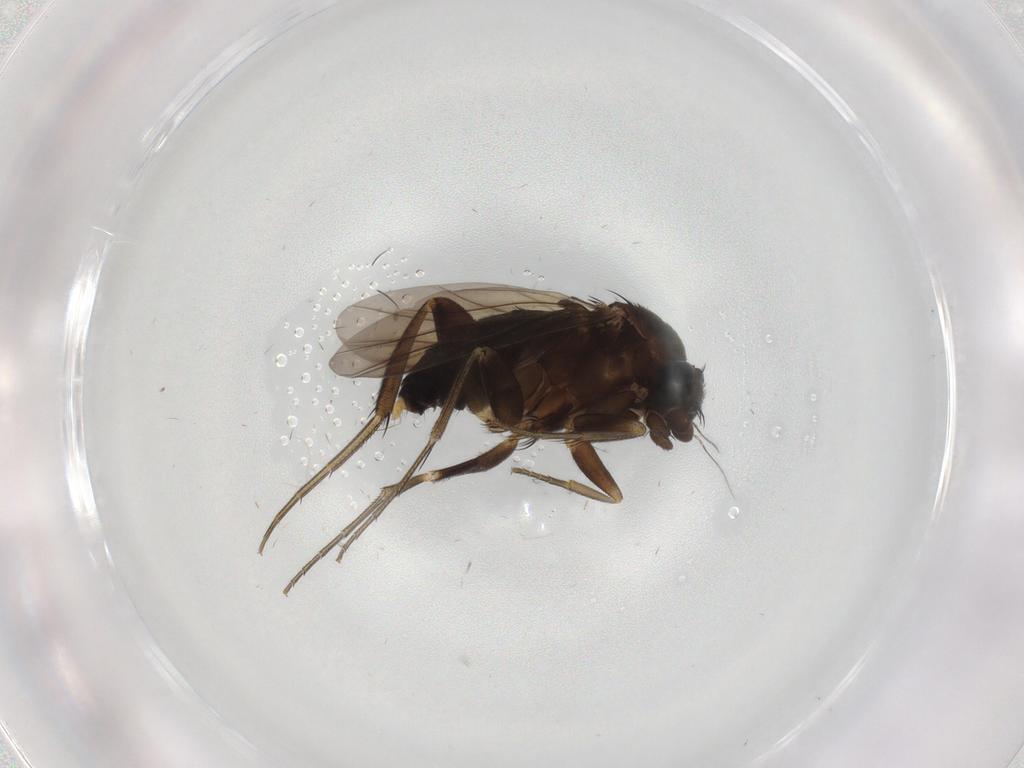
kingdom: Animalia
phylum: Arthropoda
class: Insecta
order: Diptera
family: Phoridae
